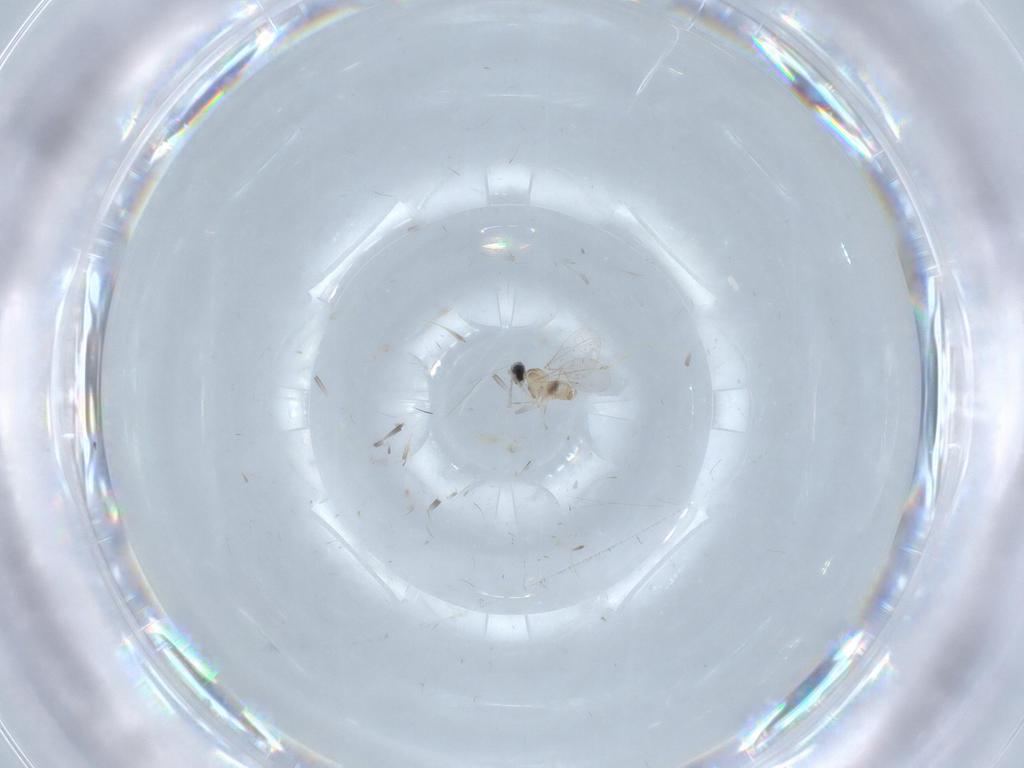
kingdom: Animalia
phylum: Arthropoda
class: Insecta
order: Diptera
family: Cecidomyiidae
